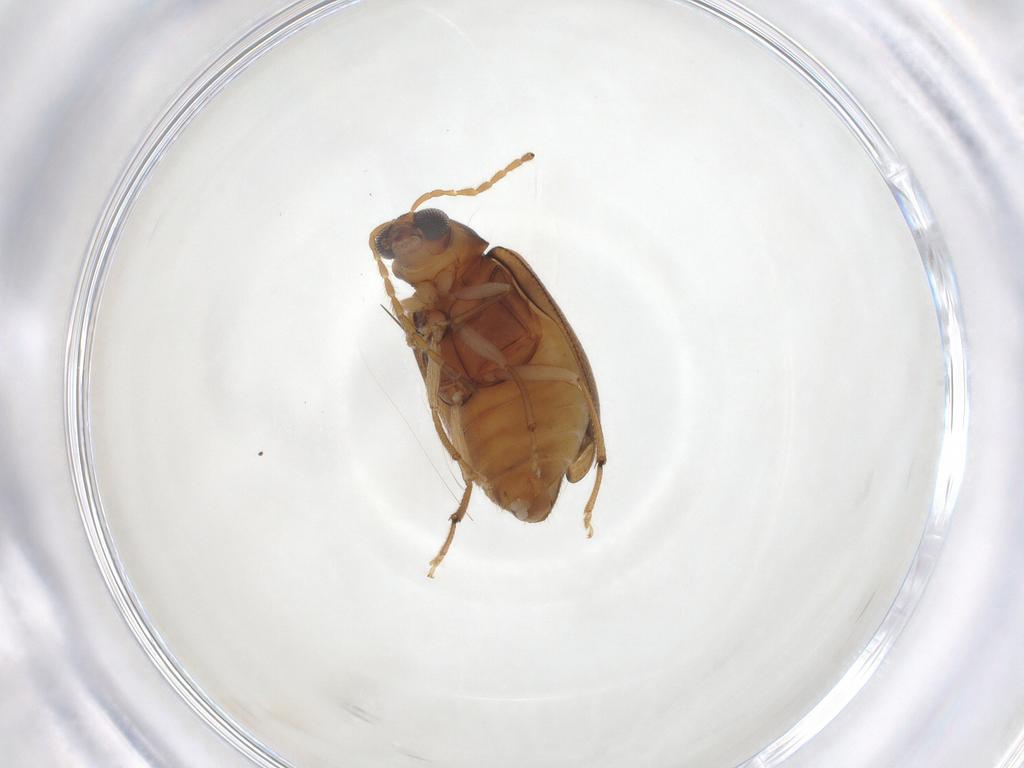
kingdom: Animalia
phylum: Arthropoda
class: Insecta
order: Coleoptera
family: Chrysomelidae
